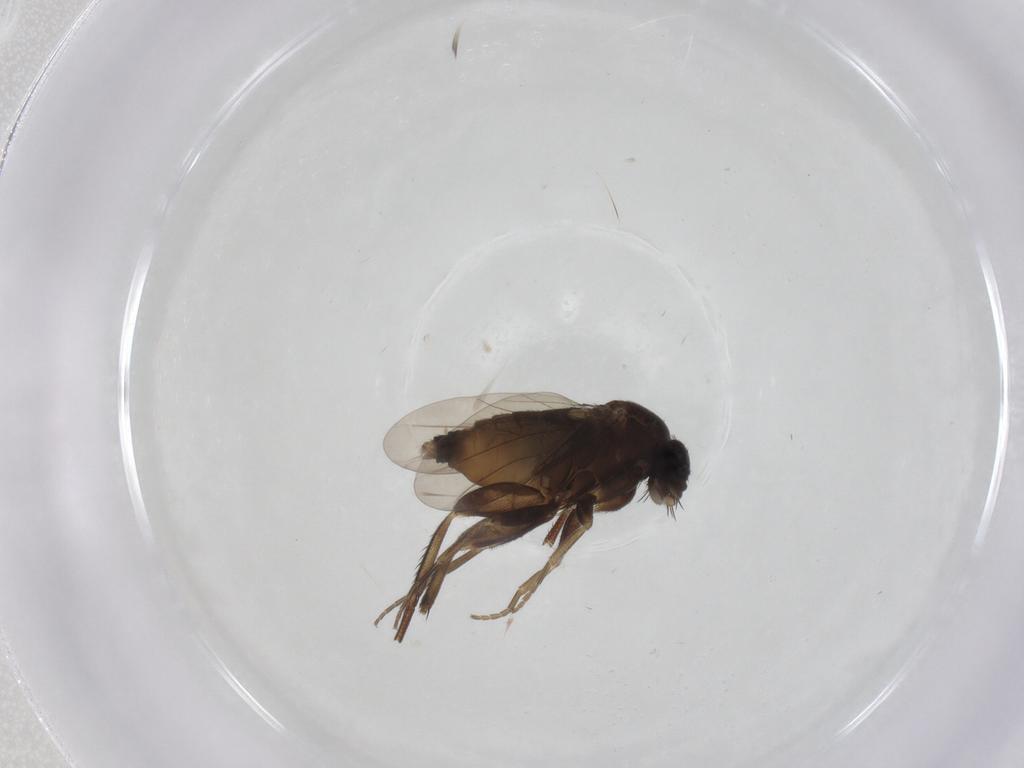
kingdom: Animalia
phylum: Arthropoda
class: Insecta
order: Diptera
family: Phoridae
